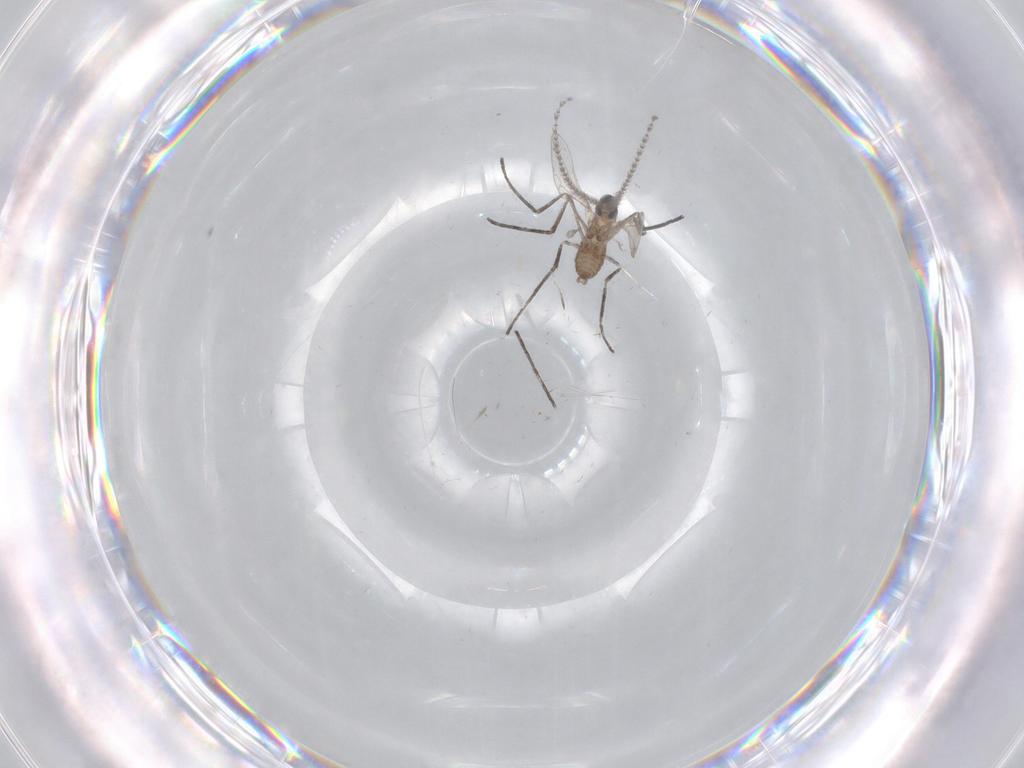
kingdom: Animalia
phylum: Arthropoda
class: Insecta
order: Diptera
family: Cecidomyiidae
